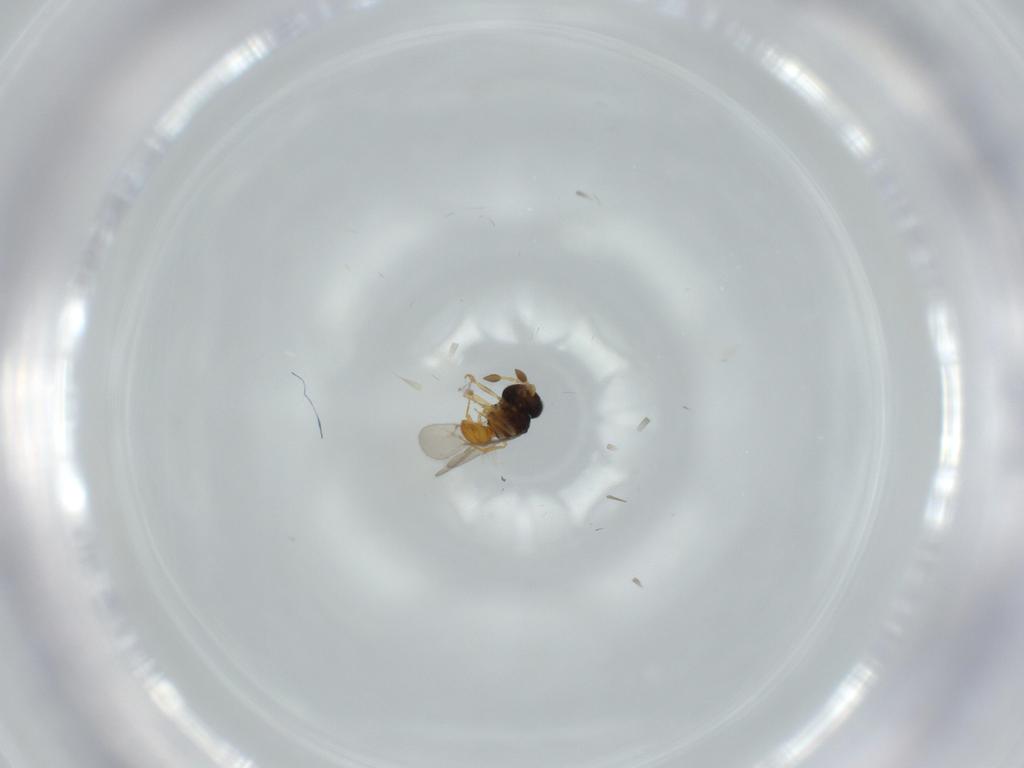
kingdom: Animalia
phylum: Arthropoda
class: Insecta
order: Hymenoptera
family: Scelionidae
